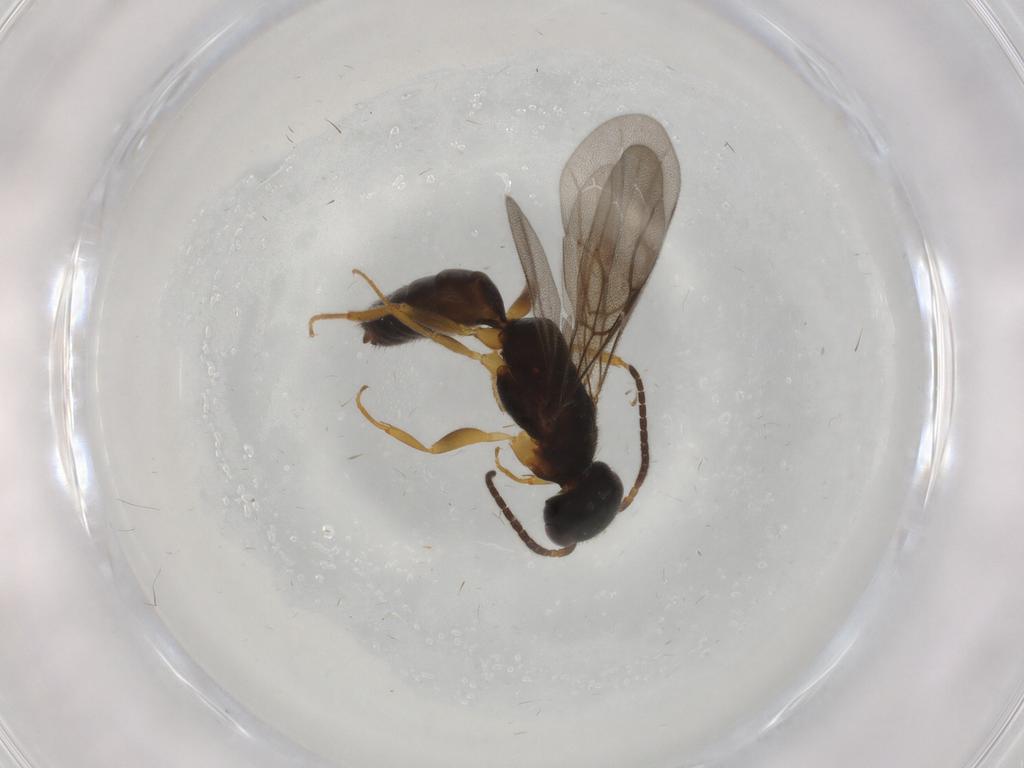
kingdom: Animalia
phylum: Arthropoda
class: Insecta
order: Hymenoptera
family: Bethylidae
